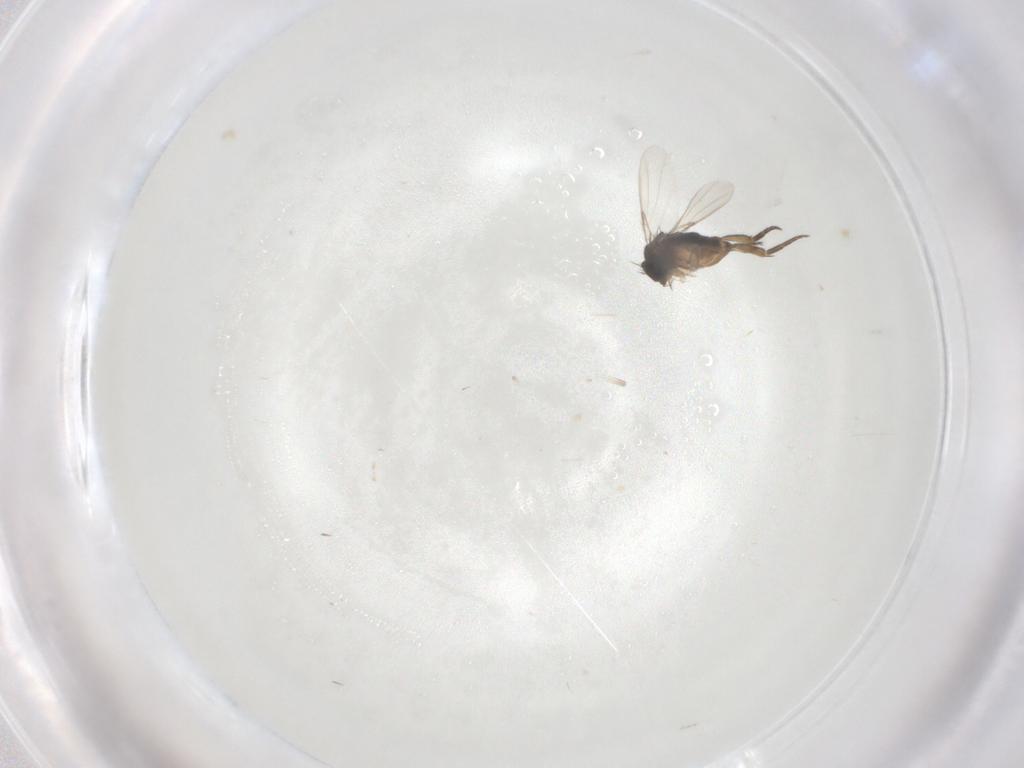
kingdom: Animalia
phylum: Arthropoda
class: Insecta
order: Diptera
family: Phoridae
